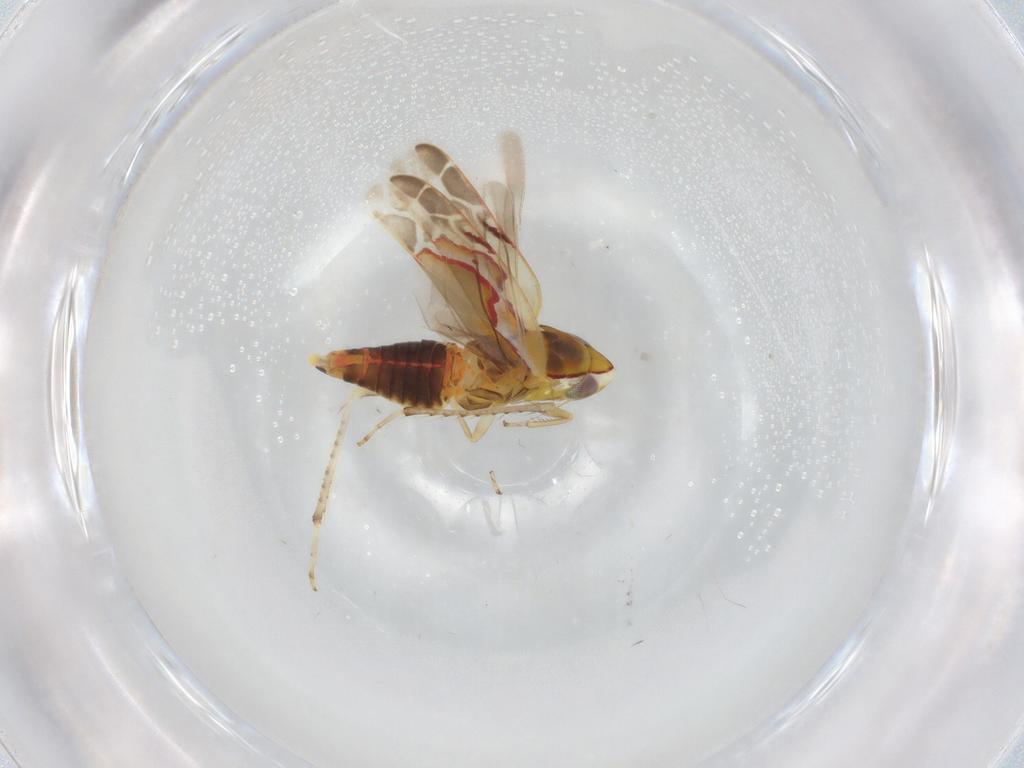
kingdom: Animalia
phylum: Arthropoda
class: Insecta
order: Hemiptera
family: Cicadellidae
